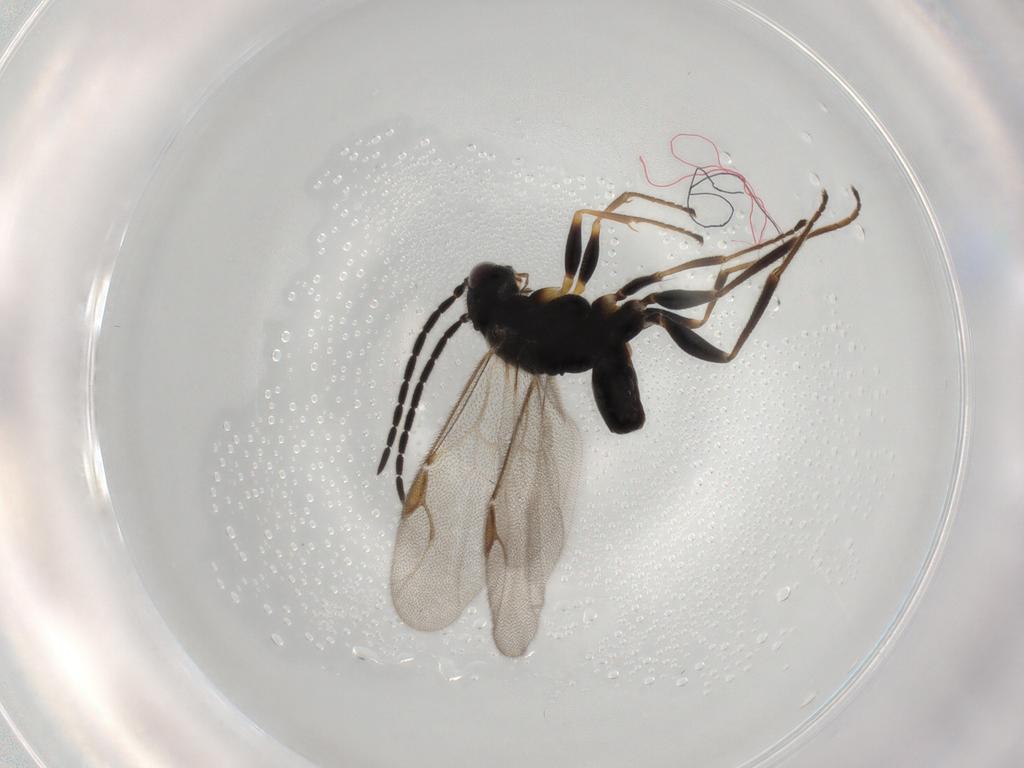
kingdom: Animalia
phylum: Arthropoda
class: Insecta
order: Hymenoptera
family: Dryinidae
